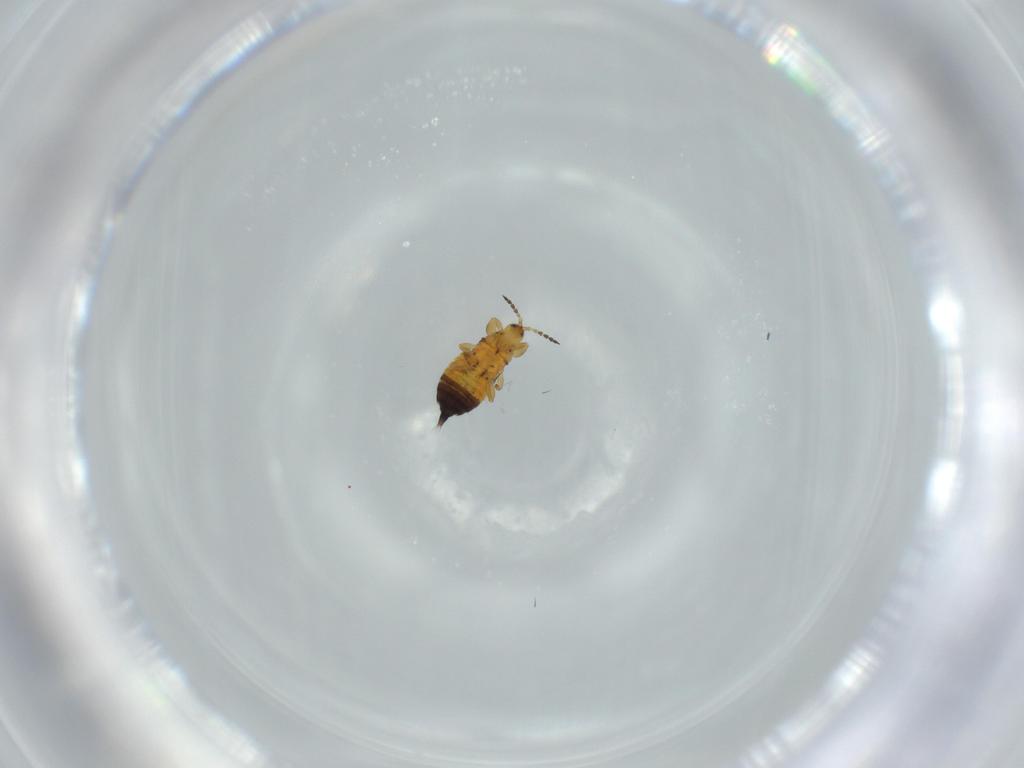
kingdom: Animalia
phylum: Arthropoda
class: Insecta
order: Thysanoptera
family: Phlaeothripidae
